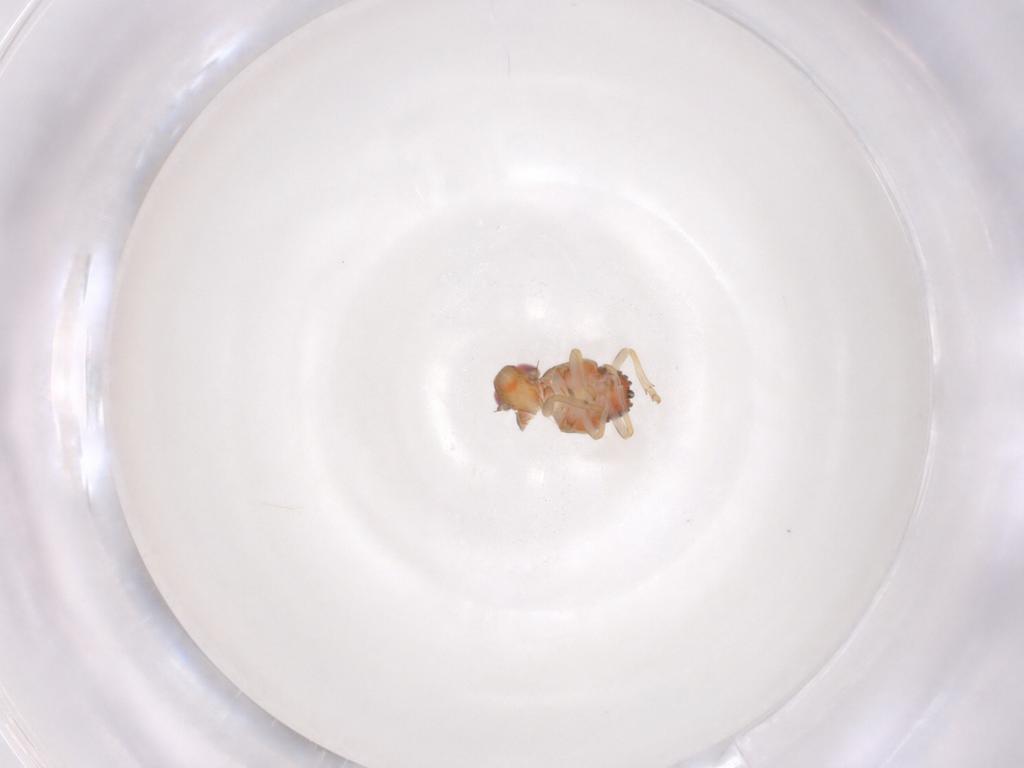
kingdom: Animalia
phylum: Arthropoda
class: Insecta
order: Hemiptera
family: Issidae
